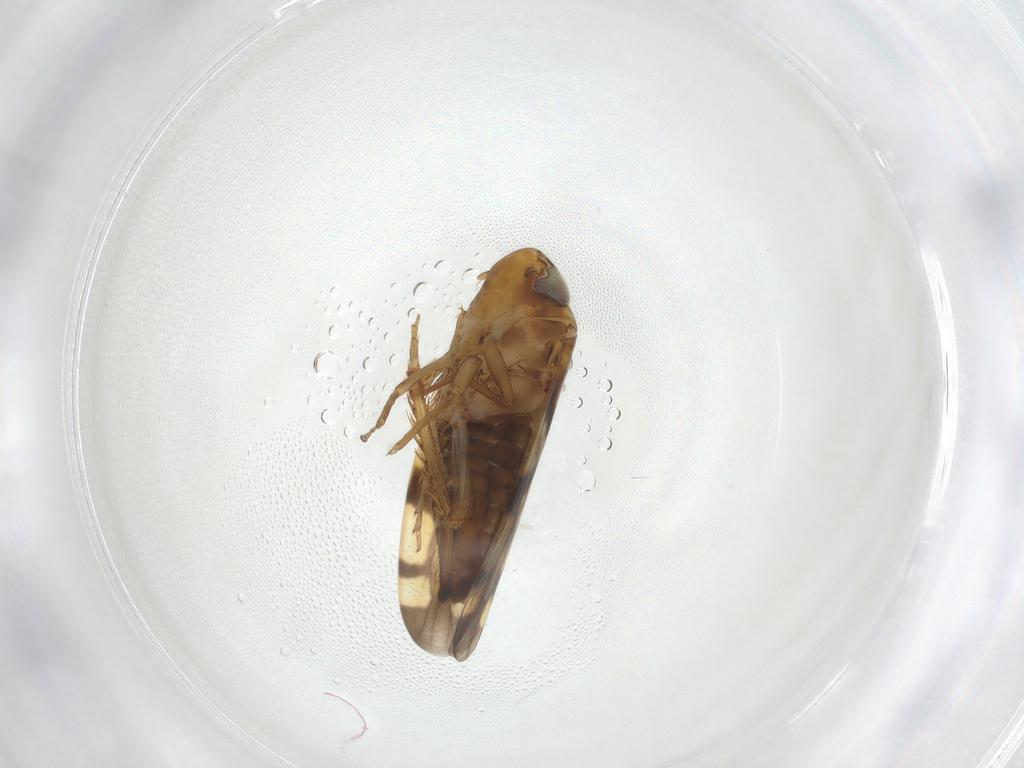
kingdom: Animalia
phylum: Arthropoda
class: Insecta
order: Hemiptera
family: Cicadellidae
